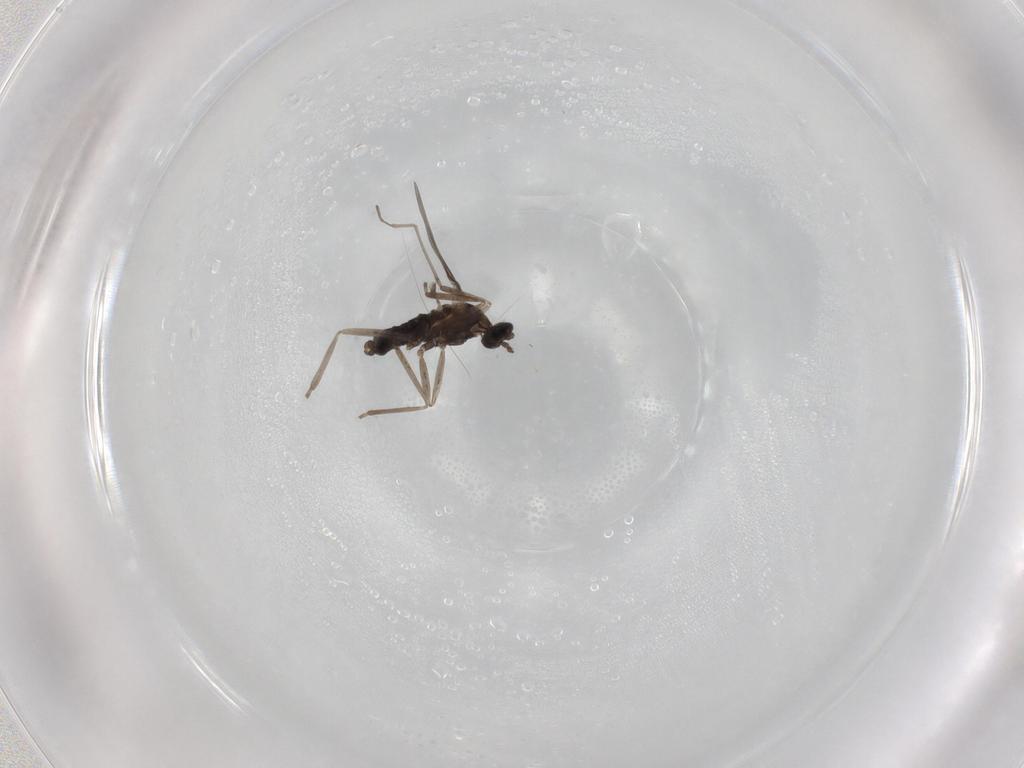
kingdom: Animalia
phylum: Arthropoda
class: Insecta
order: Diptera
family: Cecidomyiidae
